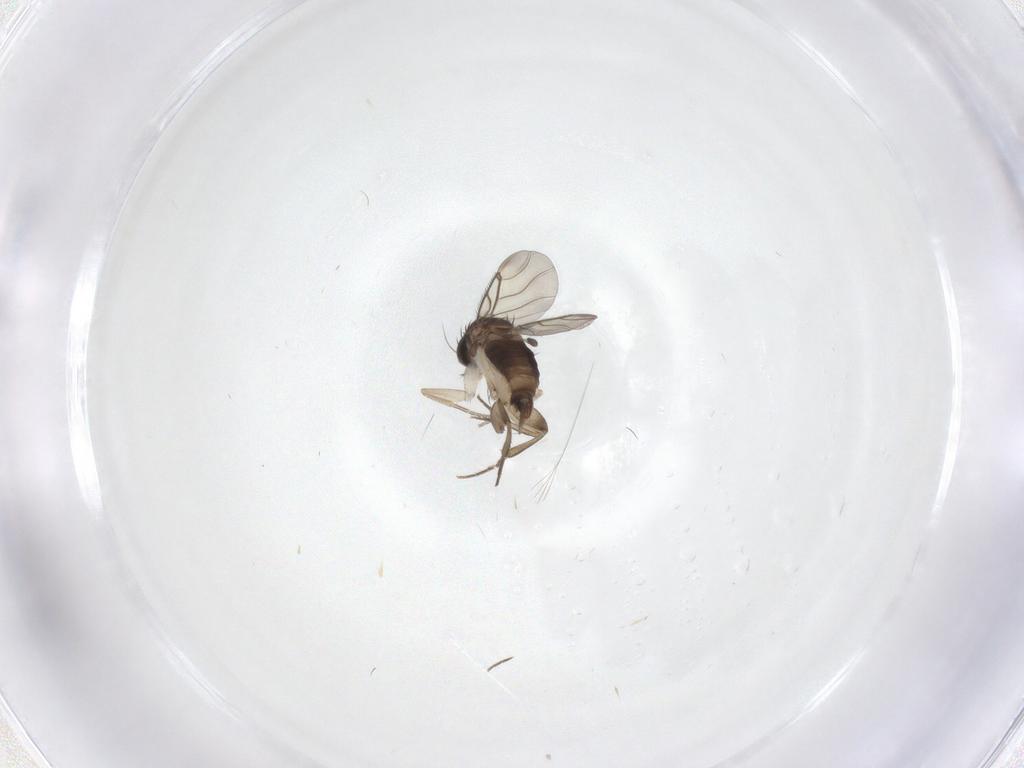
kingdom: Animalia
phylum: Arthropoda
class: Insecta
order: Diptera
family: Phoridae
